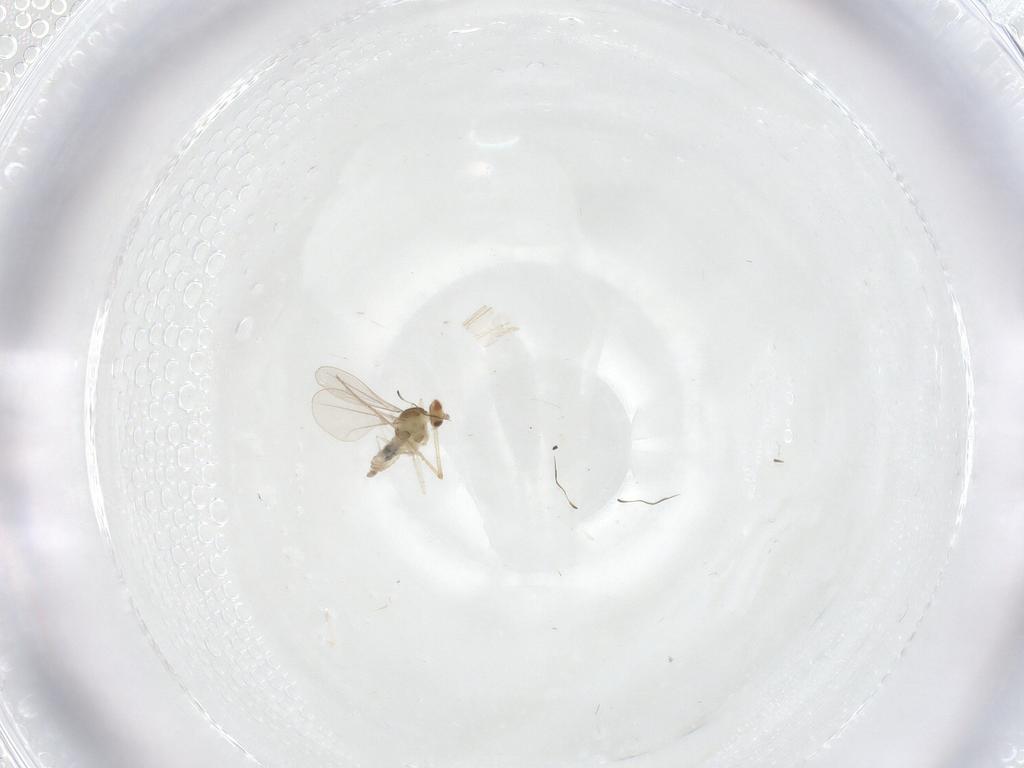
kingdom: Animalia
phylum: Arthropoda
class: Insecta
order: Diptera
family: Cecidomyiidae
